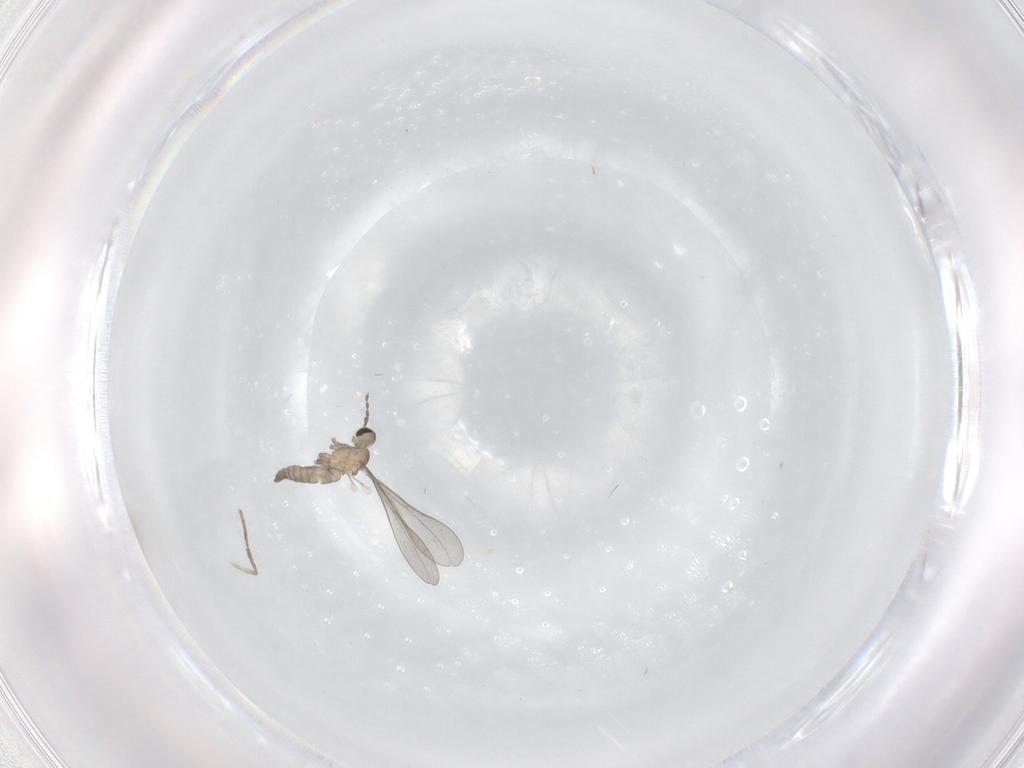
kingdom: Animalia
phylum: Arthropoda
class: Insecta
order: Diptera
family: Cecidomyiidae
